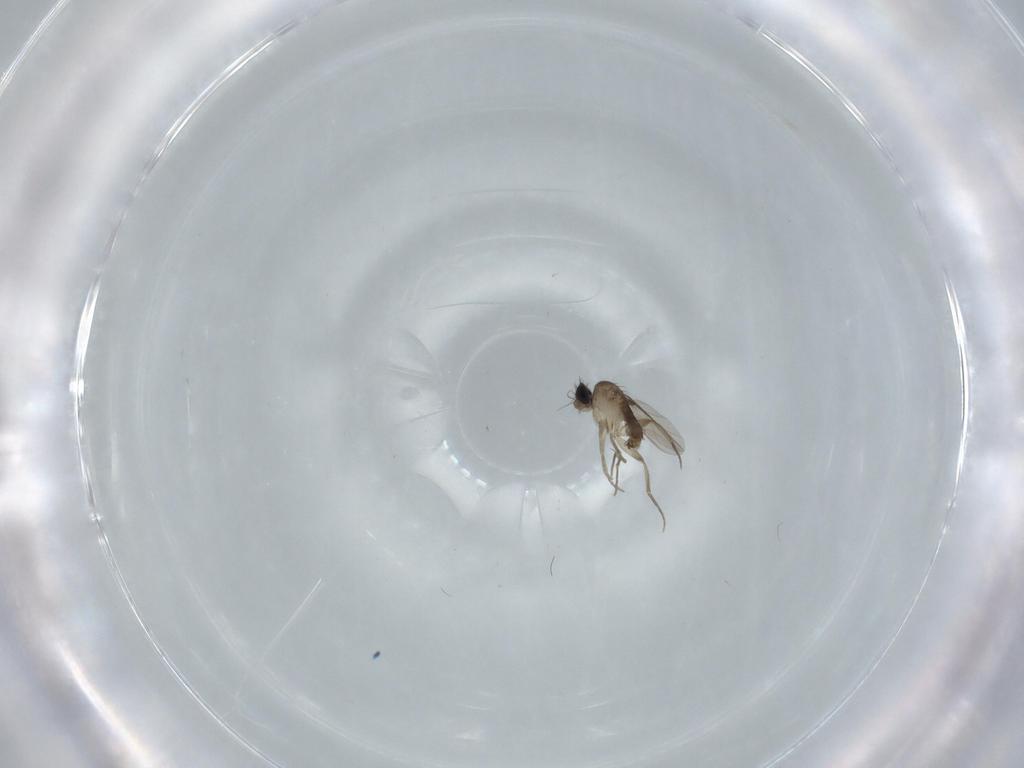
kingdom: Animalia
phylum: Arthropoda
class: Insecta
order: Diptera
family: Phoridae
